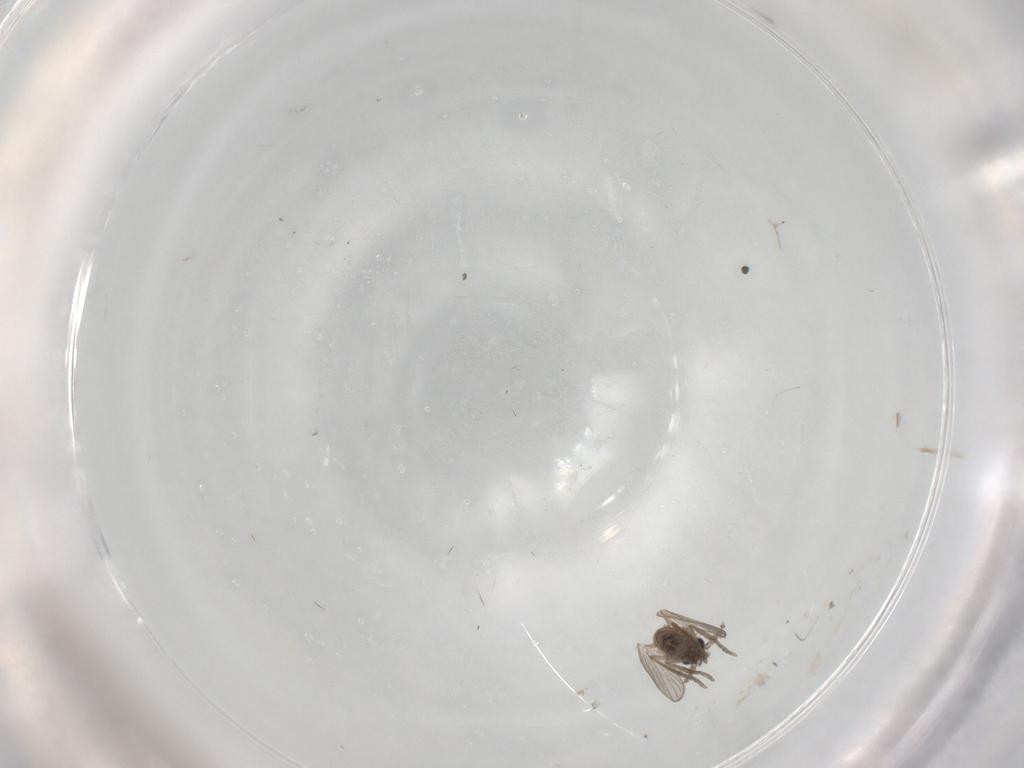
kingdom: Animalia
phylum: Arthropoda
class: Insecta
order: Diptera
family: Psychodidae
